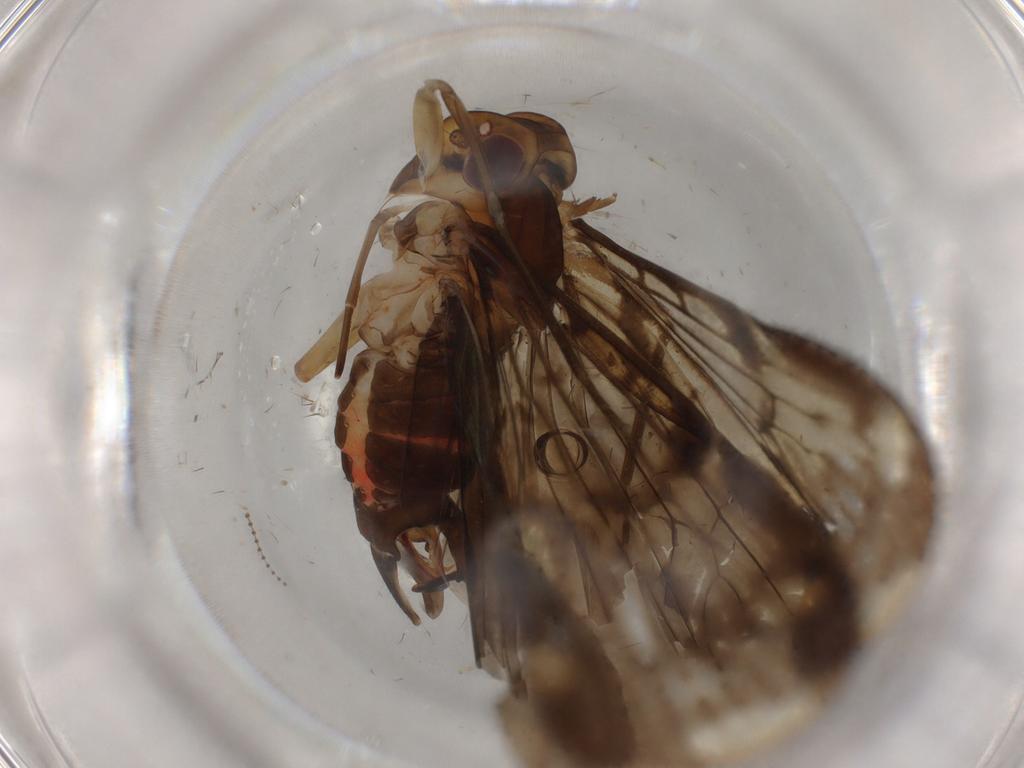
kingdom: Animalia
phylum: Arthropoda
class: Insecta
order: Hemiptera
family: Cixiidae
